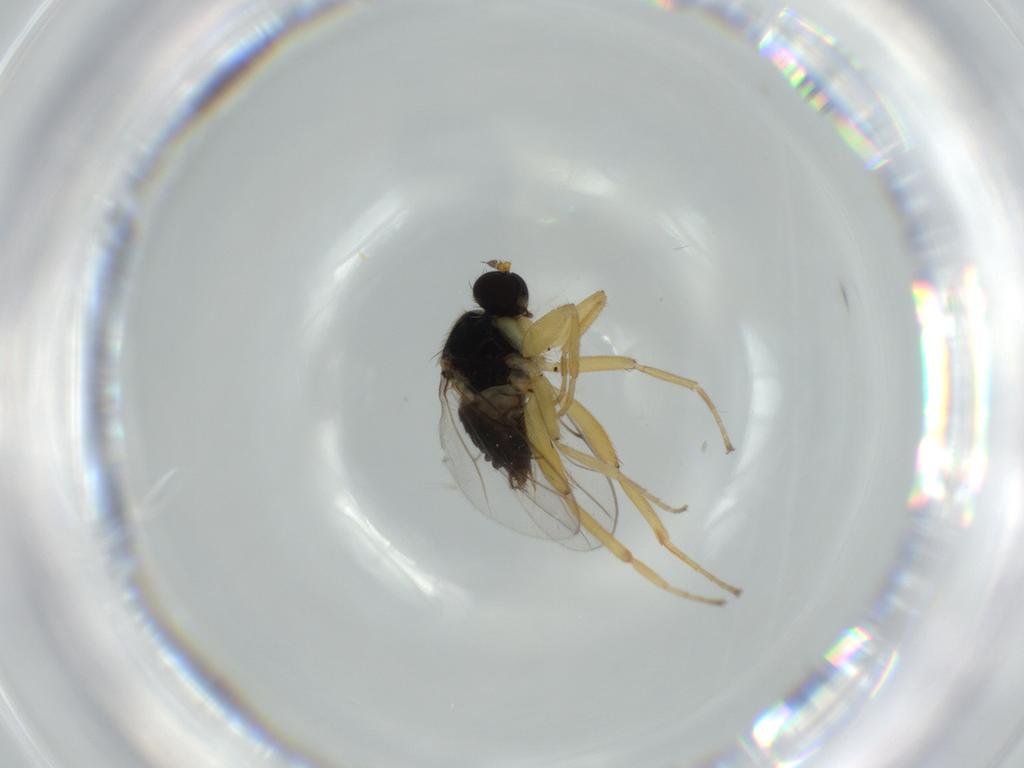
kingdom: Animalia
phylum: Arthropoda
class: Insecta
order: Diptera
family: Hybotidae
